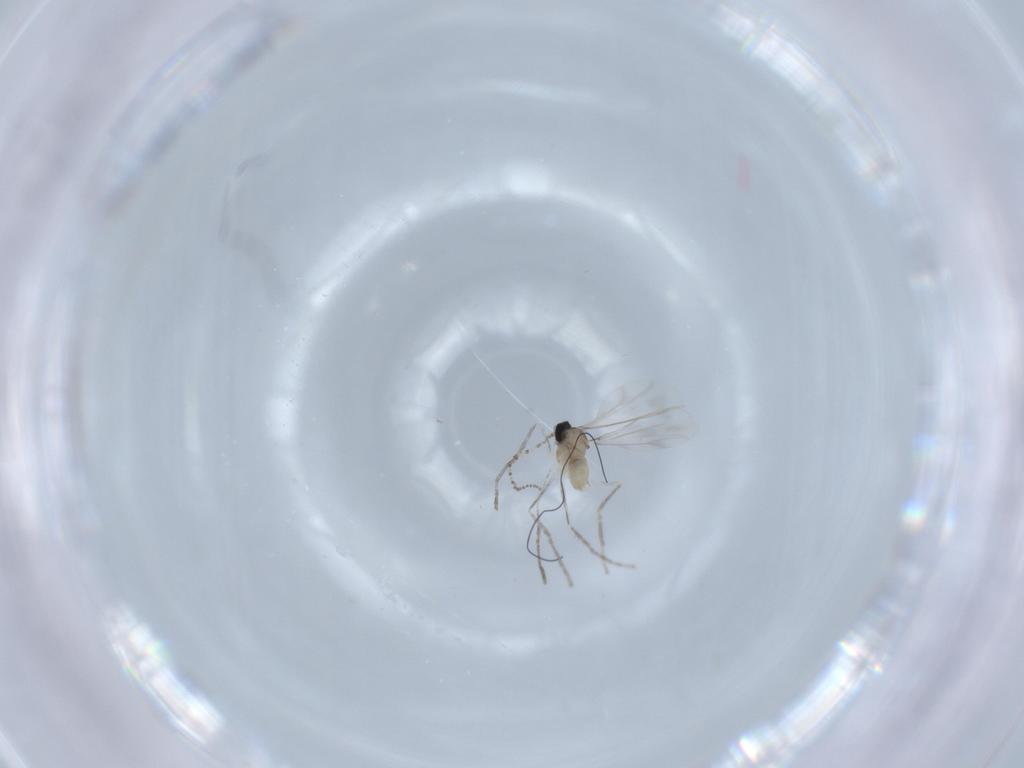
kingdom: Animalia
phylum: Arthropoda
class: Insecta
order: Diptera
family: Cecidomyiidae
